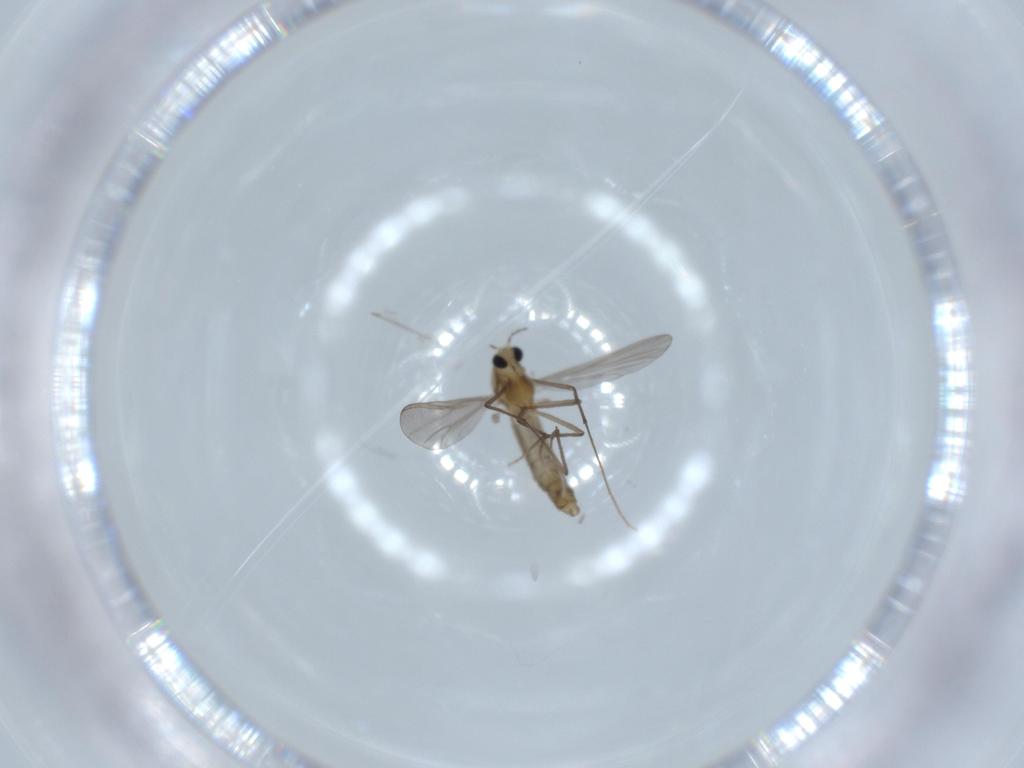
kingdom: Animalia
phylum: Arthropoda
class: Insecta
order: Diptera
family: Chironomidae
